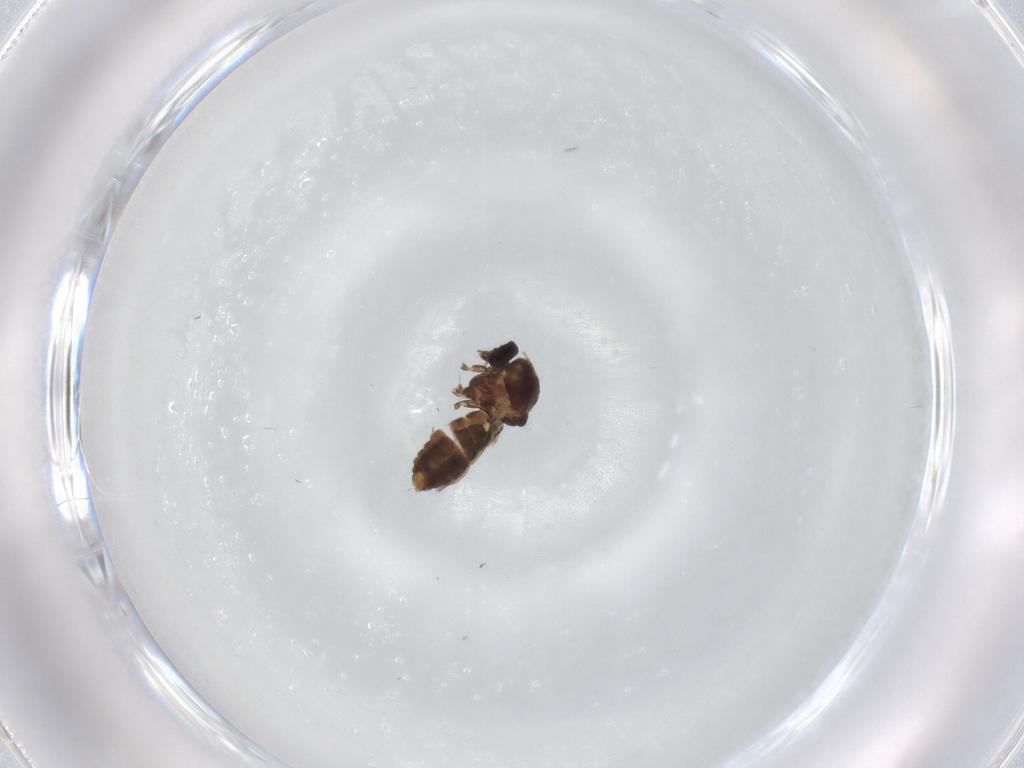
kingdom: Animalia
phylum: Arthropoda
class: Insecta
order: Diptera
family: Ceratopogonidae
